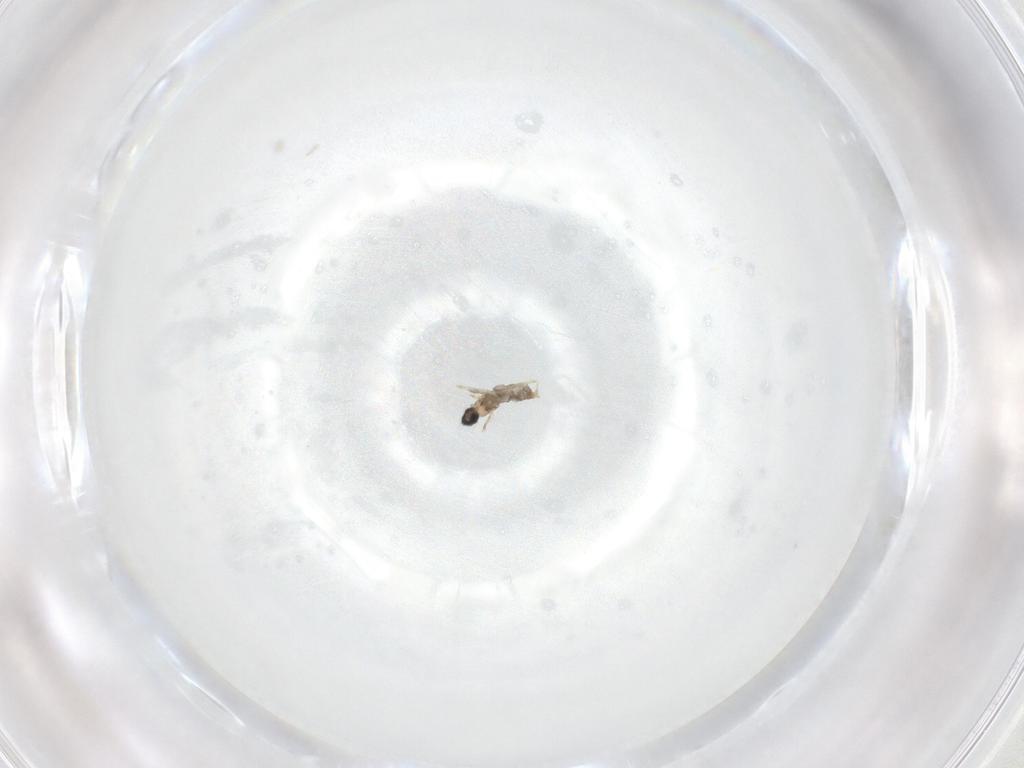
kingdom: Animalia
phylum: Arthropoda
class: Insecta
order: Diptera
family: Cecidomyiidae
